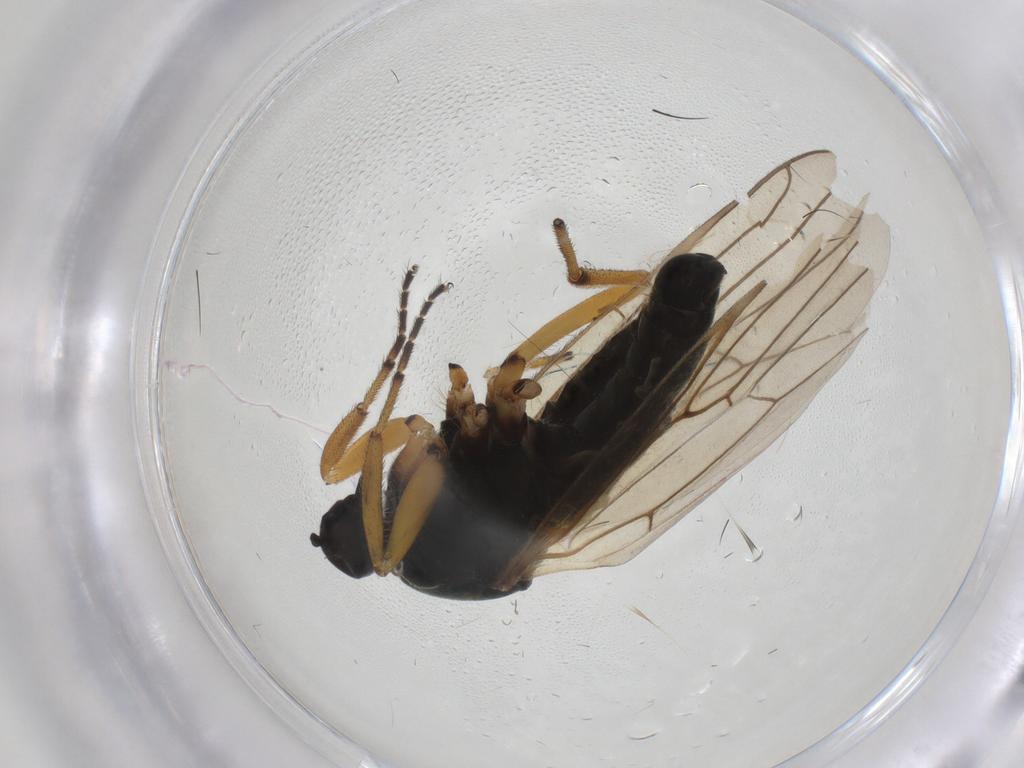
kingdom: Animalia
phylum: Arthropoda
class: Insecta
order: Diptera
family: Hybotidae
